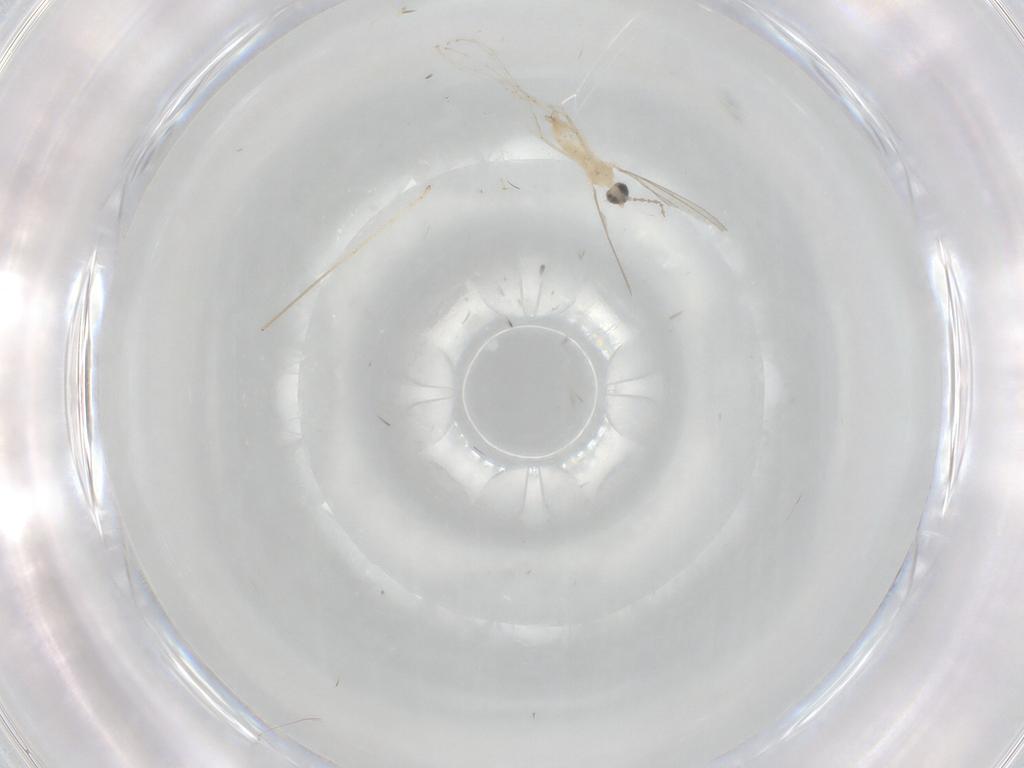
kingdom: Animalia
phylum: Arthropoda
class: Insecta
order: Diptera
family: Cecidomyiidae
